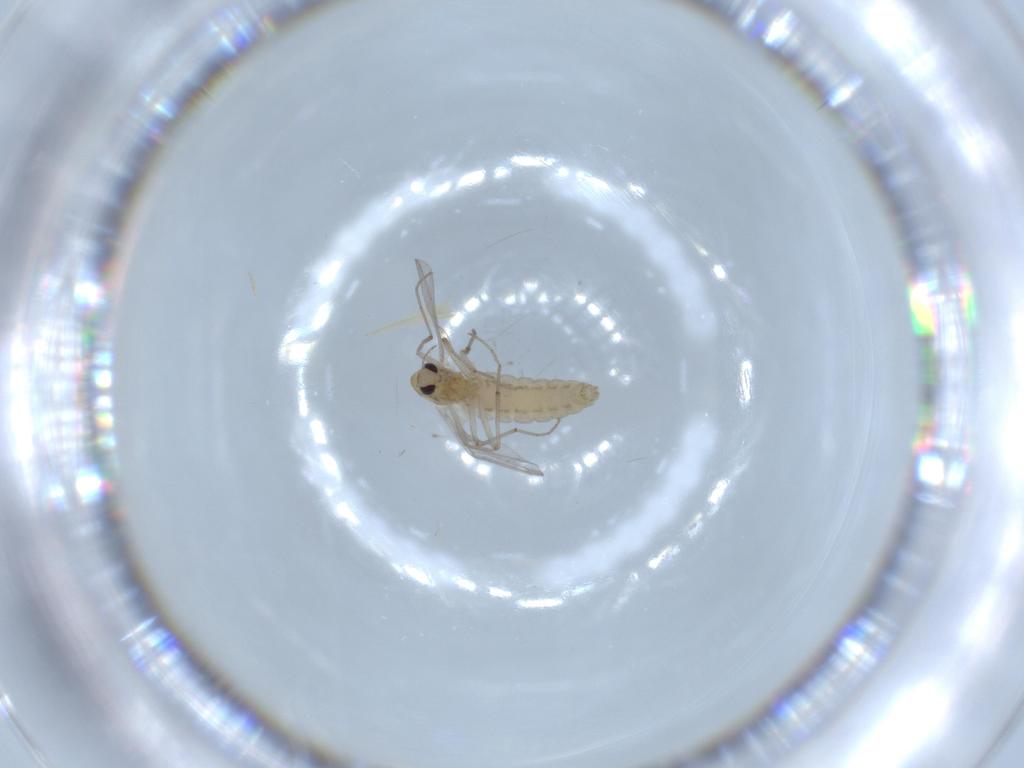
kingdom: Animalia
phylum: Arthropoda
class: Insecta
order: Diptera
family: Chironomidae
